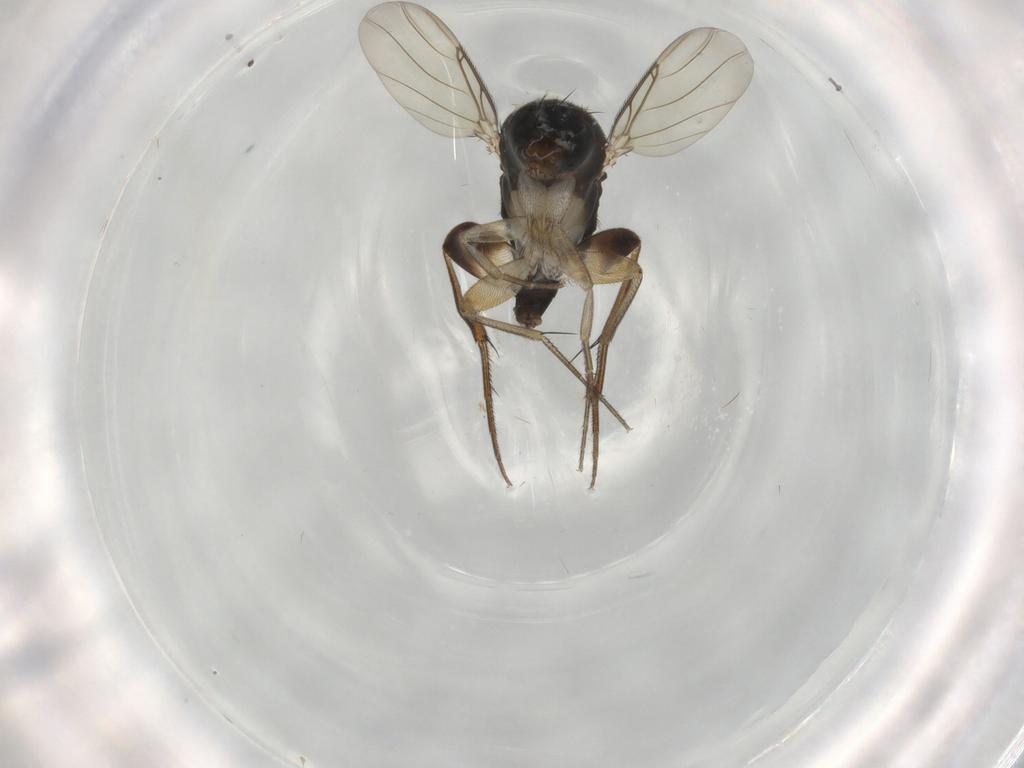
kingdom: Animalia
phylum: Arthropoda
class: Insecta
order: Diptera
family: Phoridae
